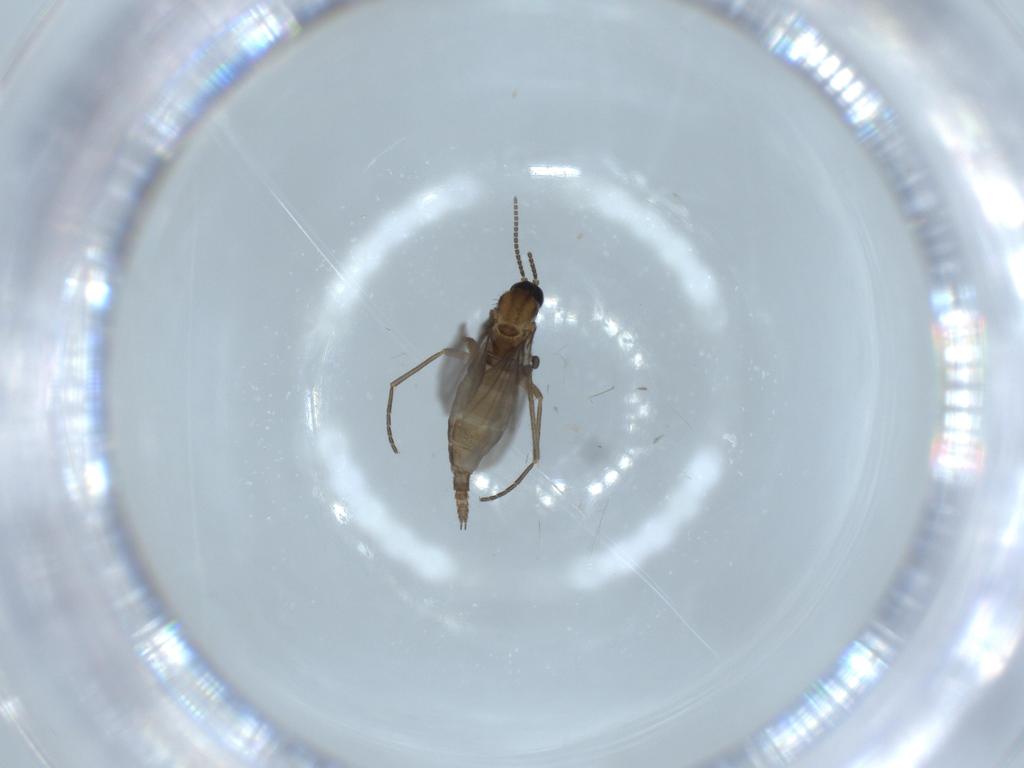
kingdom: Animalia
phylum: Arthropoda
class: Insecta
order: Diptera
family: Sciaridae
